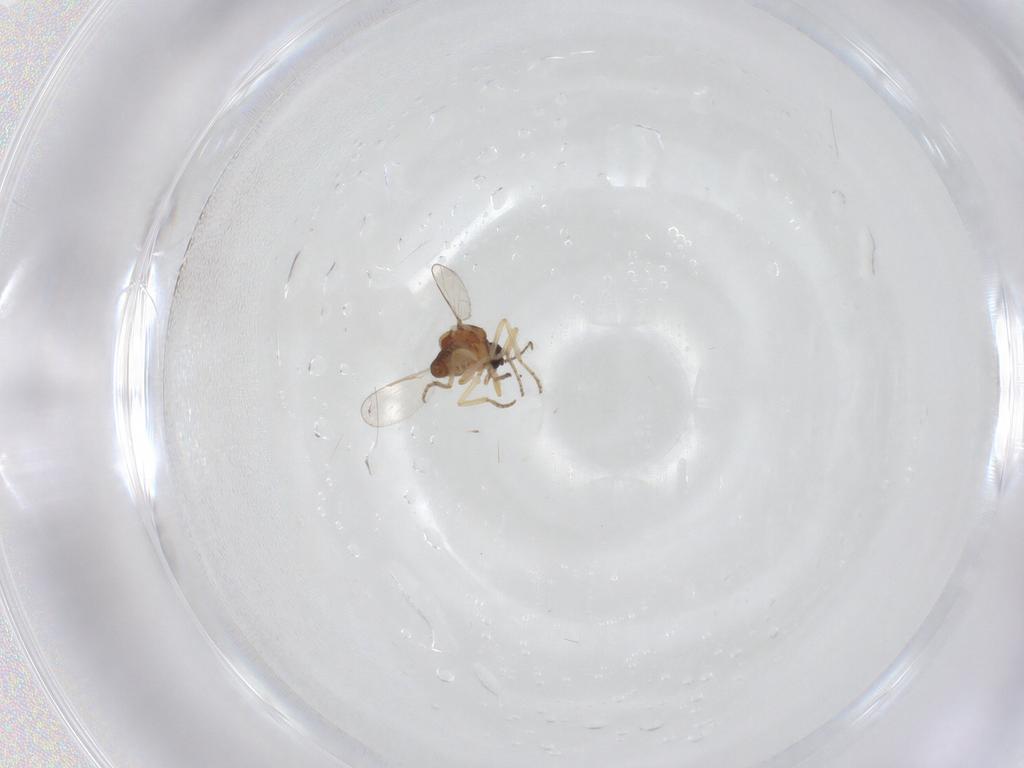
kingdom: Animalia
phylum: Arthropoda
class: Insecta
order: Diptera
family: Ceratopogonidae
